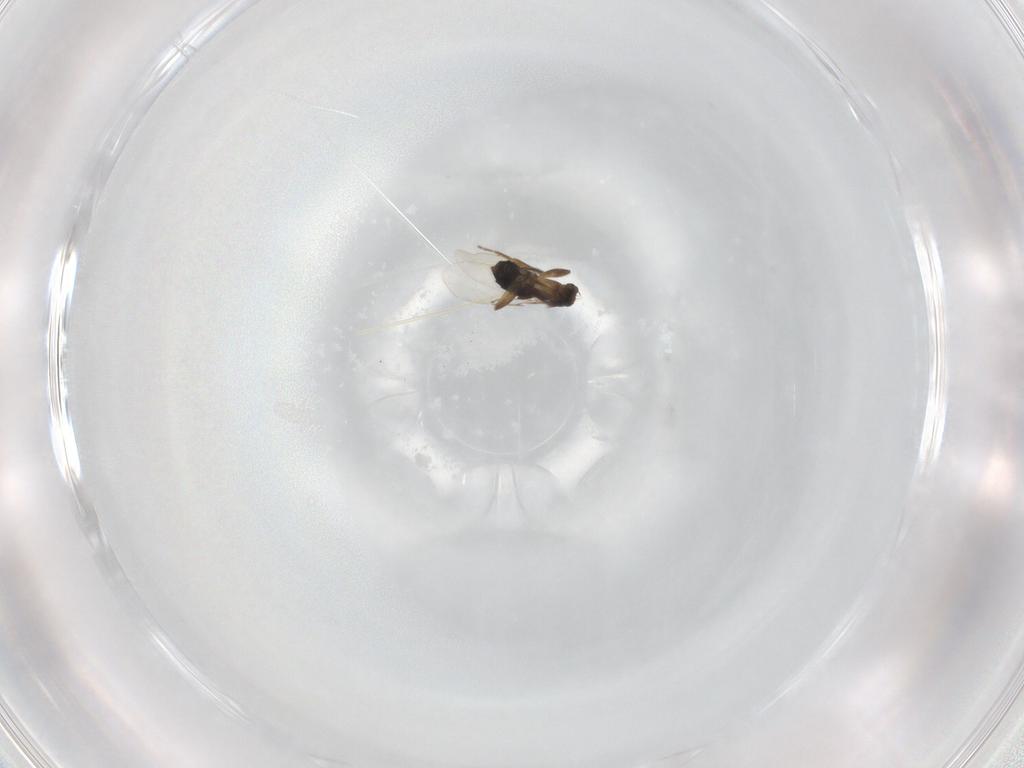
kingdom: Animalia
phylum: Arthropoda
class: Insecta
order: Diptera
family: Phoridae
